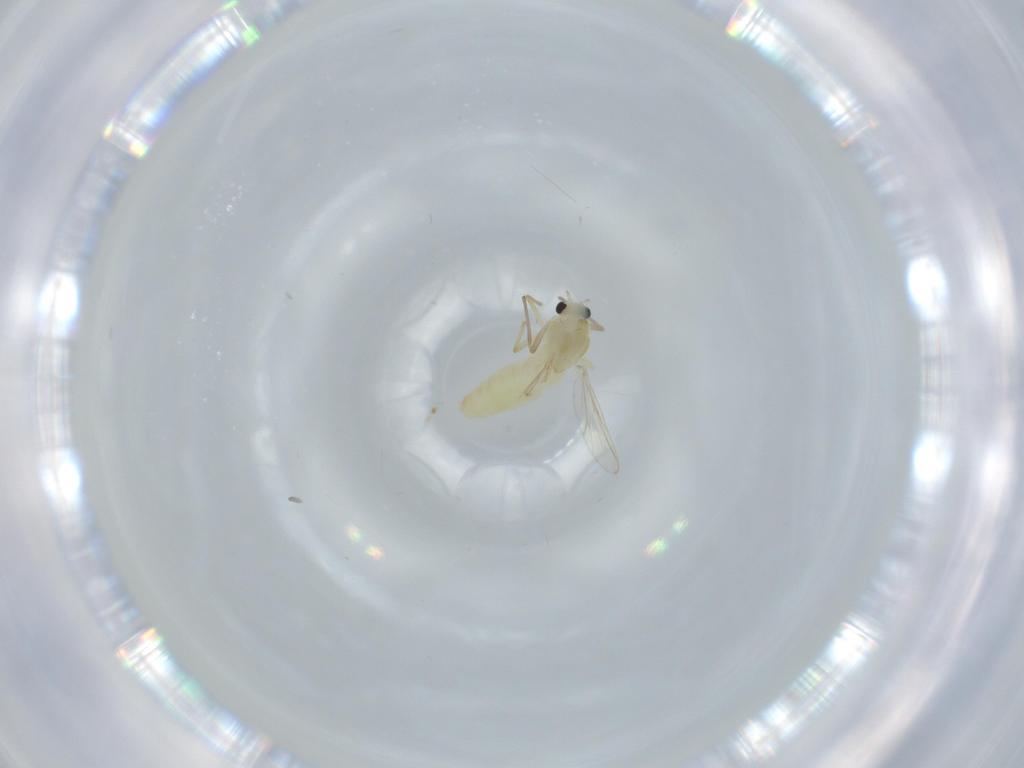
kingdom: Animalia
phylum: Arthropoda
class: Insecta
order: Diptera
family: Chironomidae
